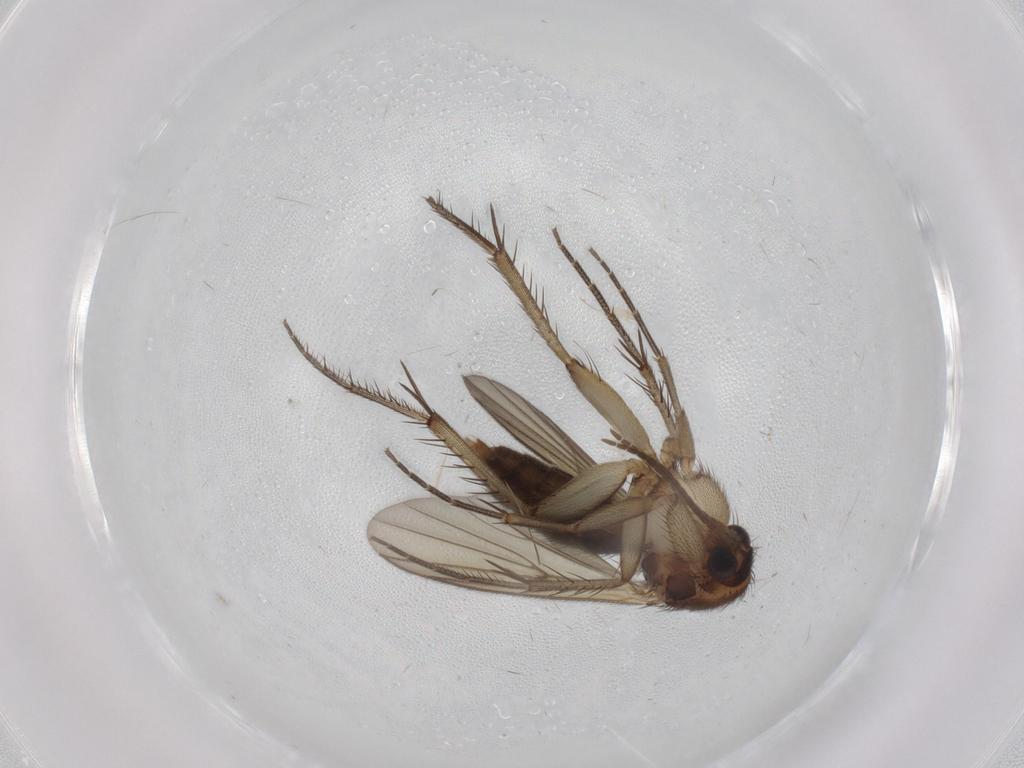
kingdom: Animalia
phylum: Arthropoda
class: Insecta
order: Diptera
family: Mycetophilidae
